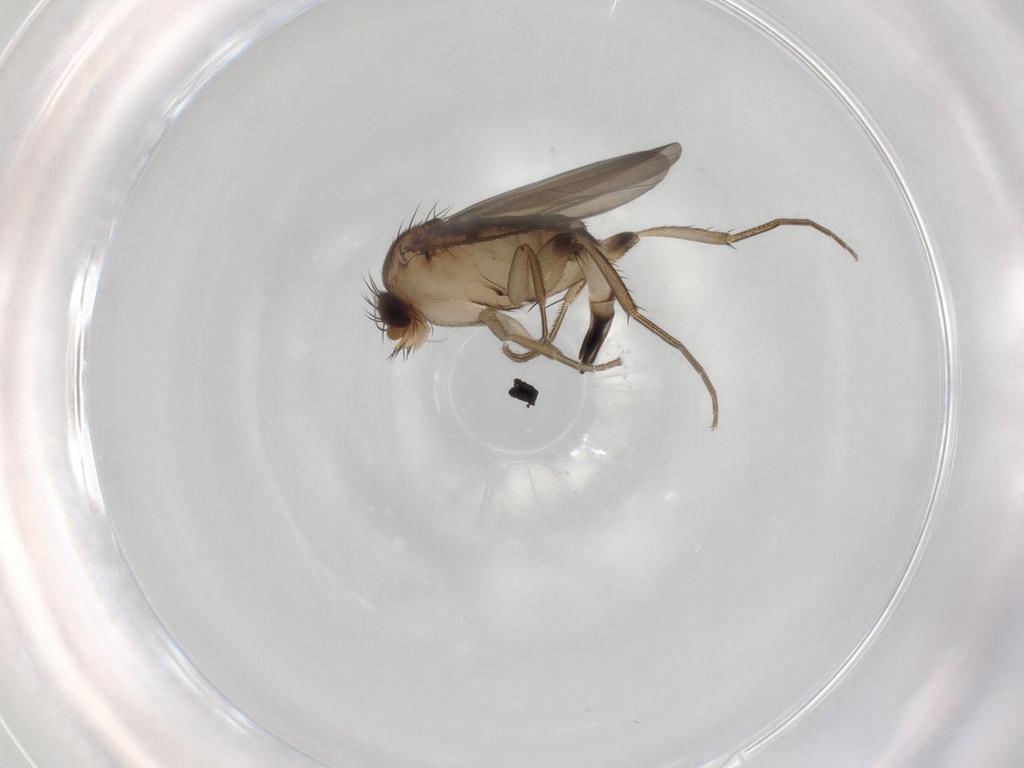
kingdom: Animalia
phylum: Arthropoda
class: Insecta
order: Diptera
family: Phoridae
